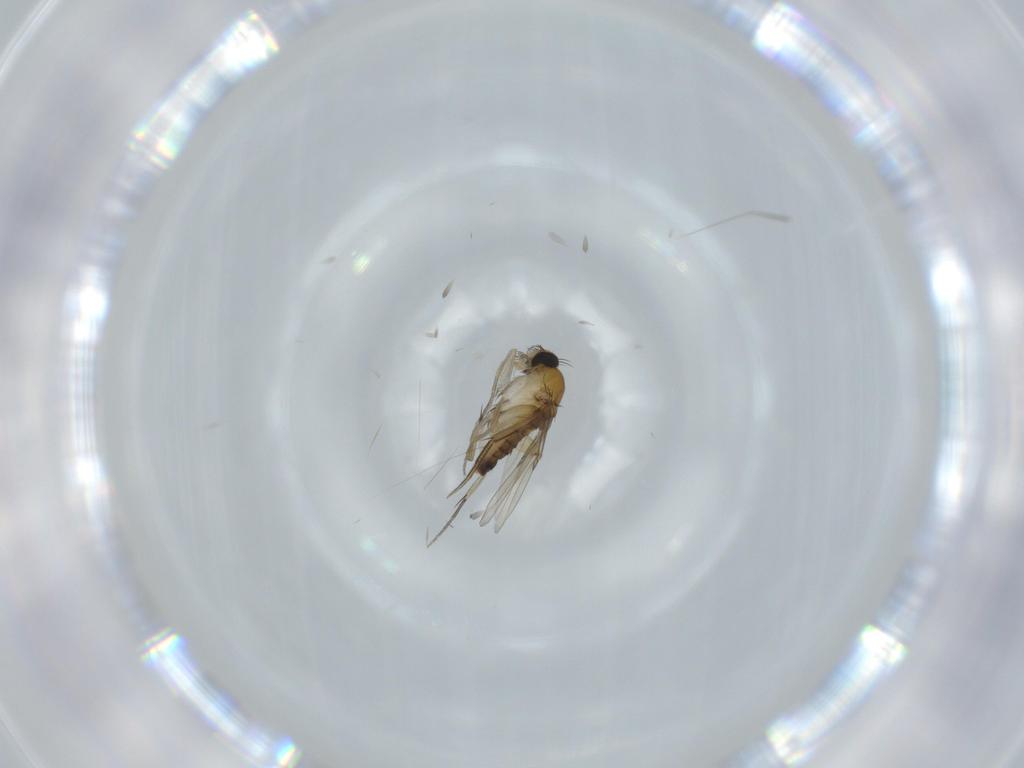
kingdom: Animalia
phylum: Arthropoda
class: Insecta
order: Diptera
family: Phoridae
